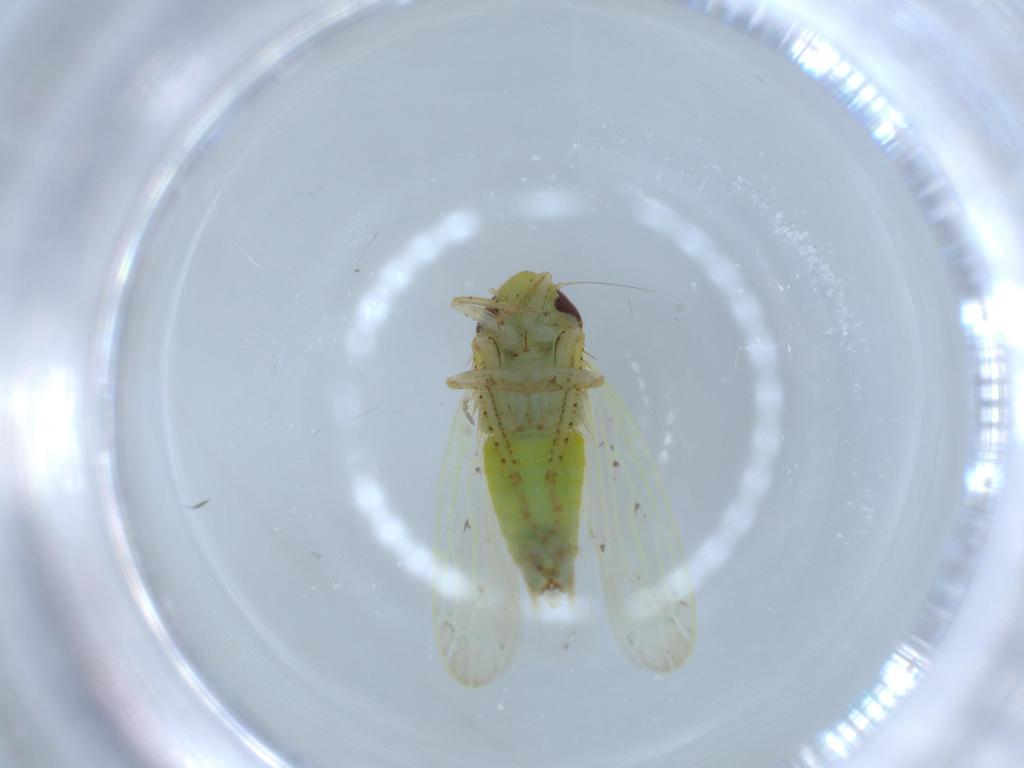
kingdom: Animalia
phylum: Arthropoda
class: Insecta
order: Hemiptera
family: Cicadellidae
